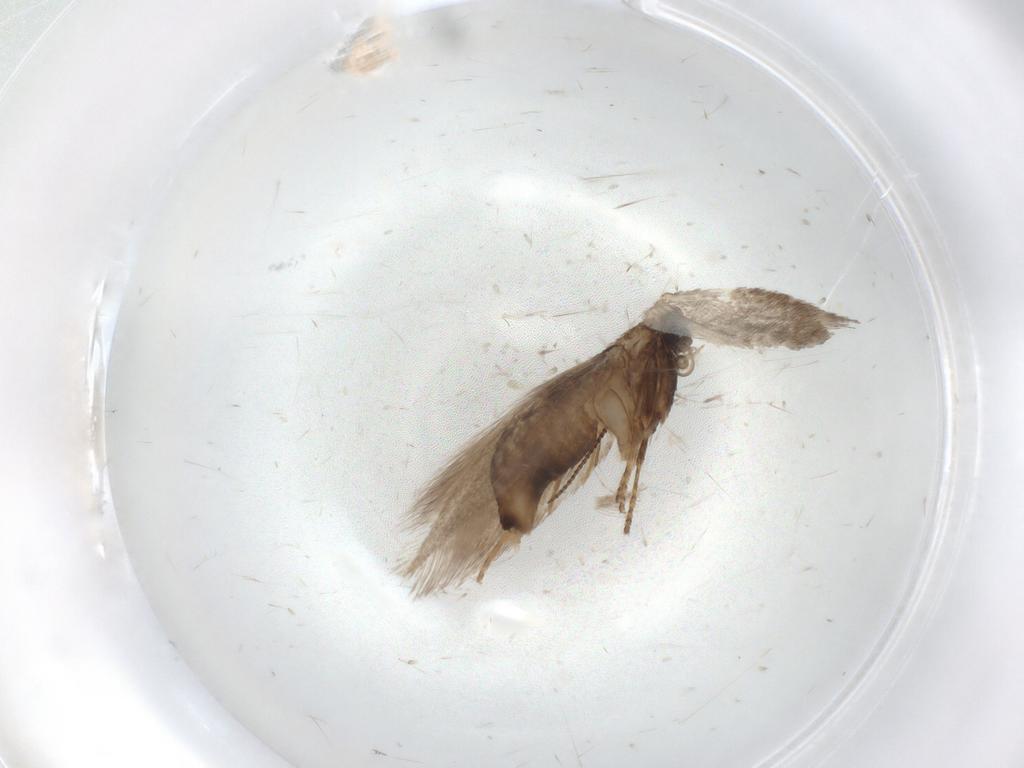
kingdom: Animalia
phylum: Arthropoda
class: Insecta
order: Lepidoptera
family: Nepticulidae
